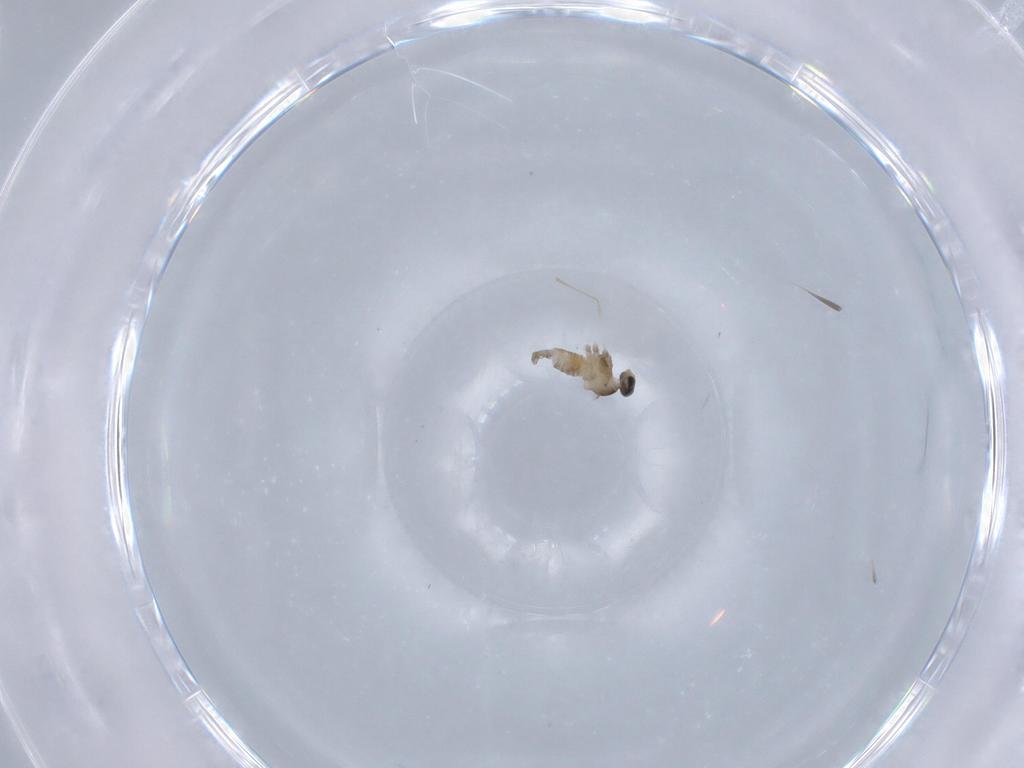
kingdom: Animalia
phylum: Arthropoda
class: Insecta
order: Diptera
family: Cecidomyiidae
